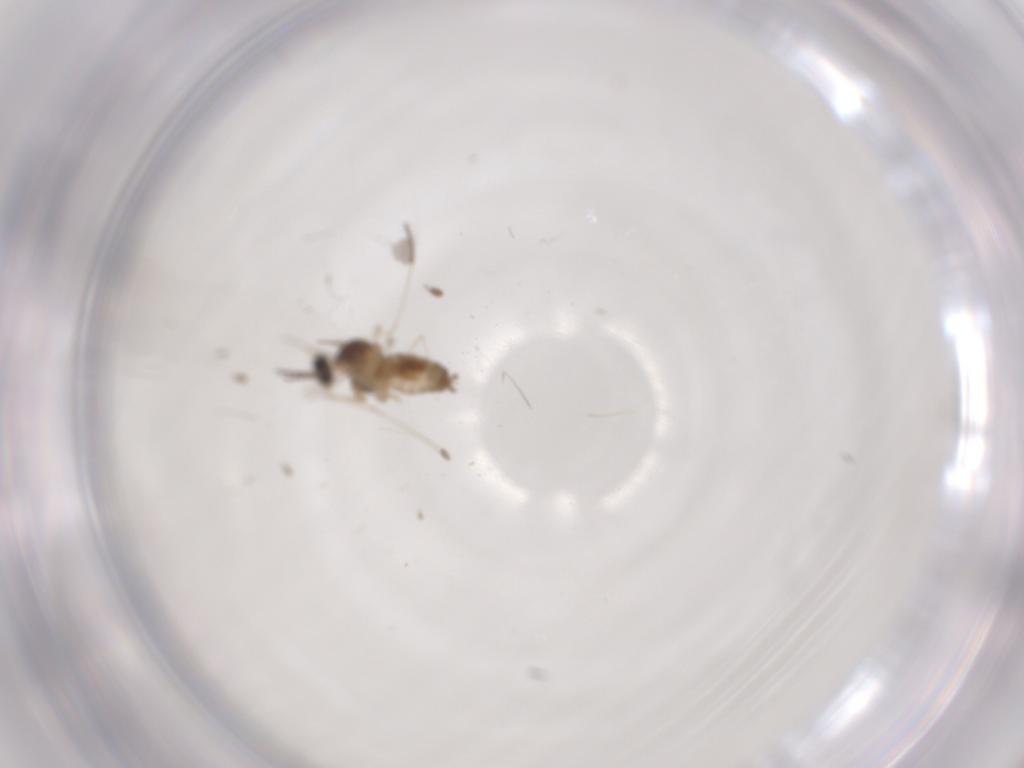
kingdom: Animalia
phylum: Arthropoda
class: Insecta
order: Diptera
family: Cecidomyiidae
